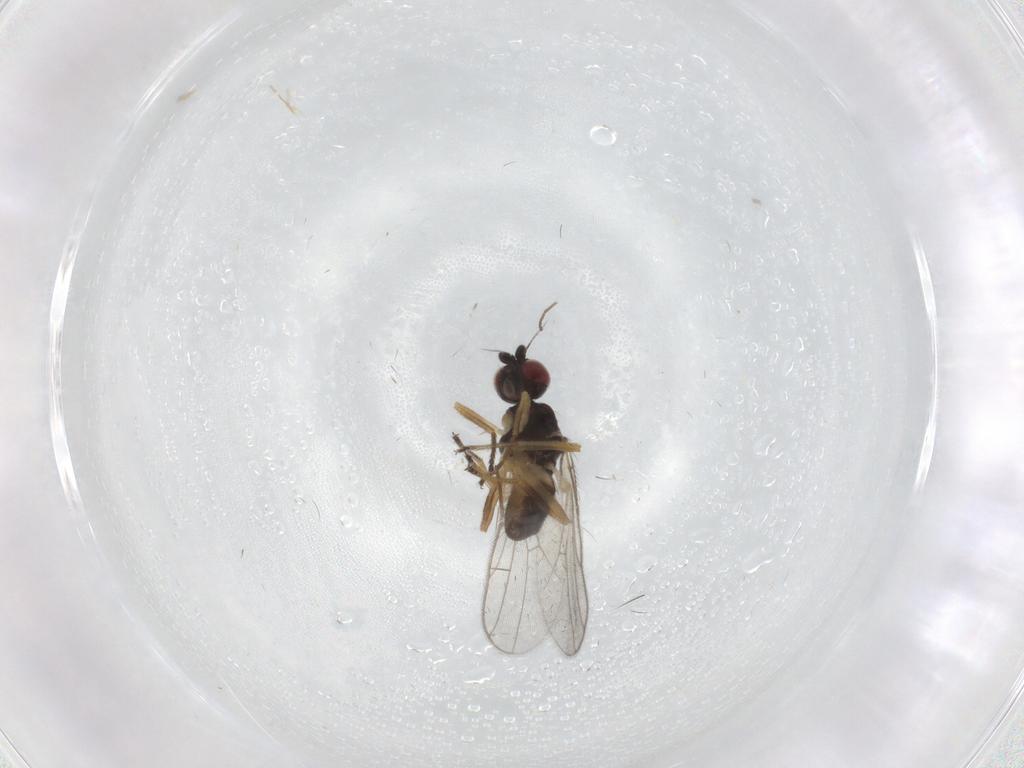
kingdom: Animalia
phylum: Arthropoda
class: Insecta
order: Diptera
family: Chloropidae
